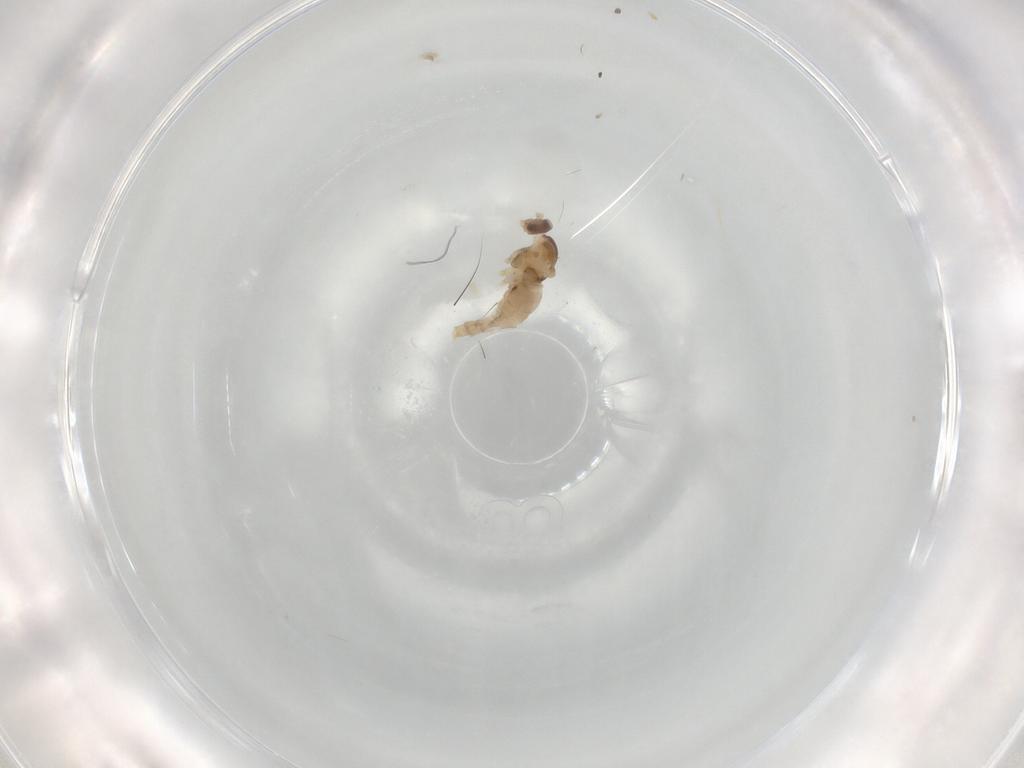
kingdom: Animalia
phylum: Arthropoda
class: Insecta
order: Diptera
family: Cecidomyiidae
